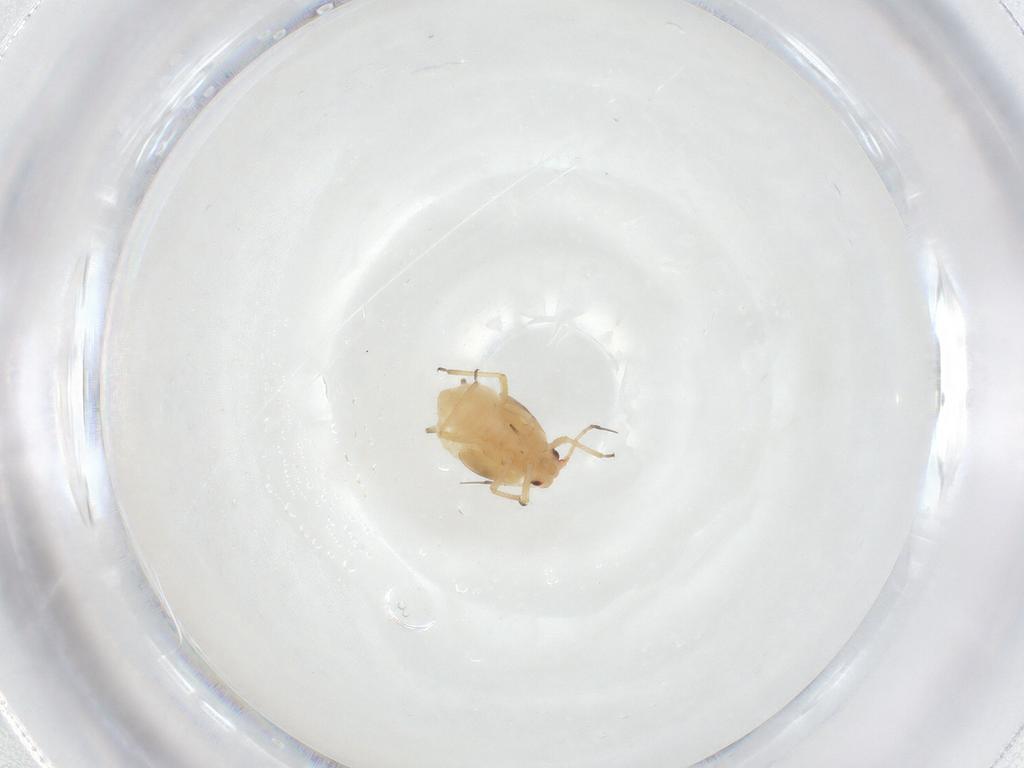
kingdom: Animalia
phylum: Arthropoda
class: Insecta
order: Hemiptera
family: Aphididae
